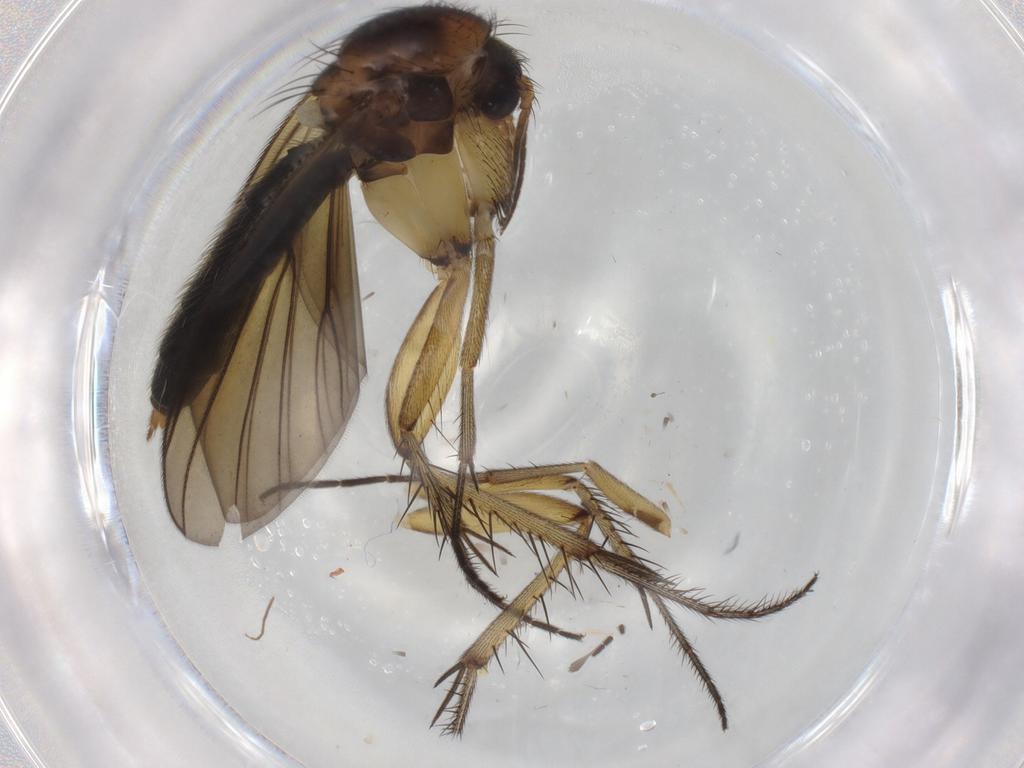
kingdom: Animalia
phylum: Arthropoda
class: Insecta
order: Diptera
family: Mycetophilidae
